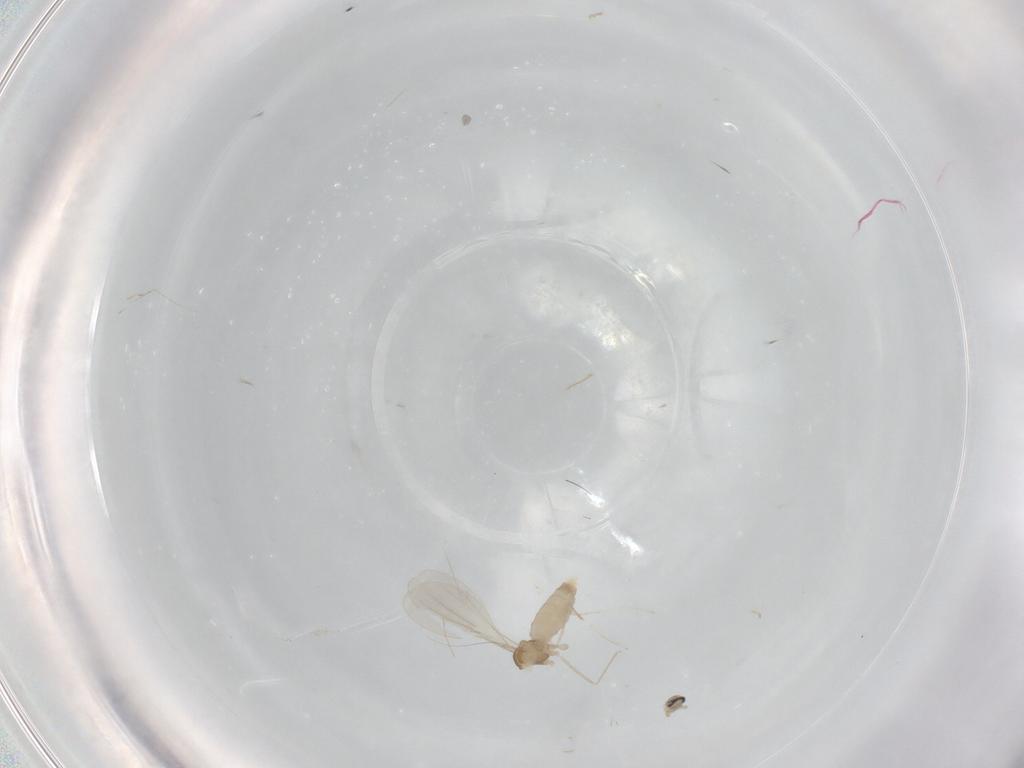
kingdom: Animalia
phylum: Arthropoda
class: Insecta
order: Diptera
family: Cecidomyiidae
